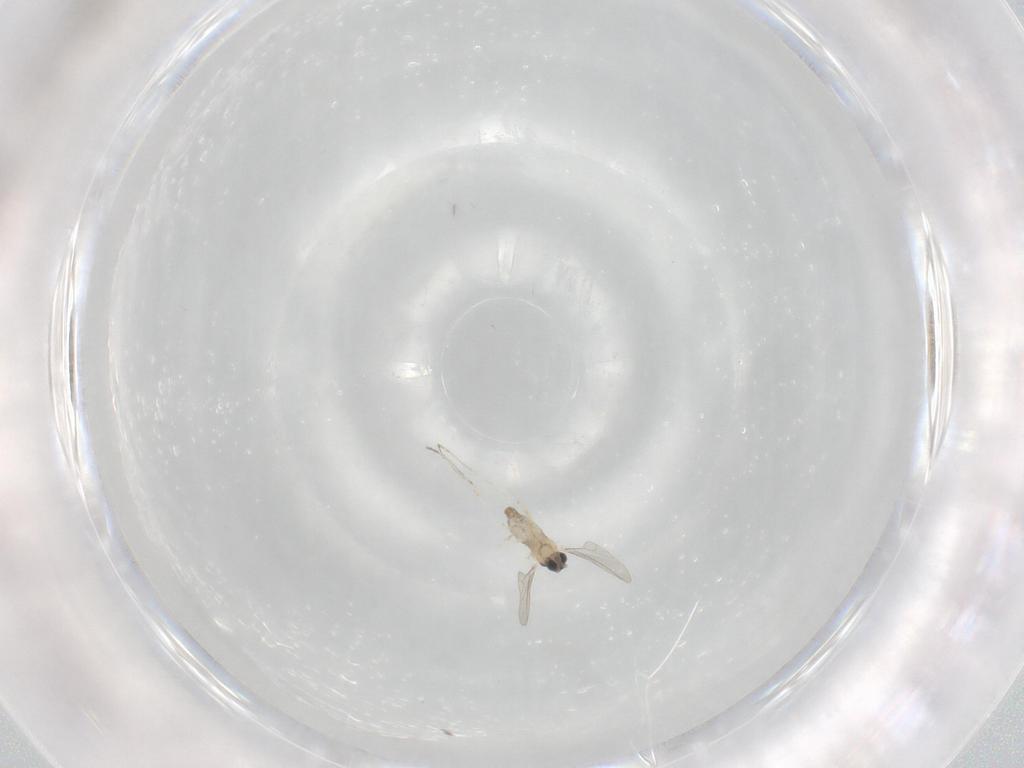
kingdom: Animalia
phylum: Arthropoda
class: Insecta
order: Diptera
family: Cecidomyiidae
